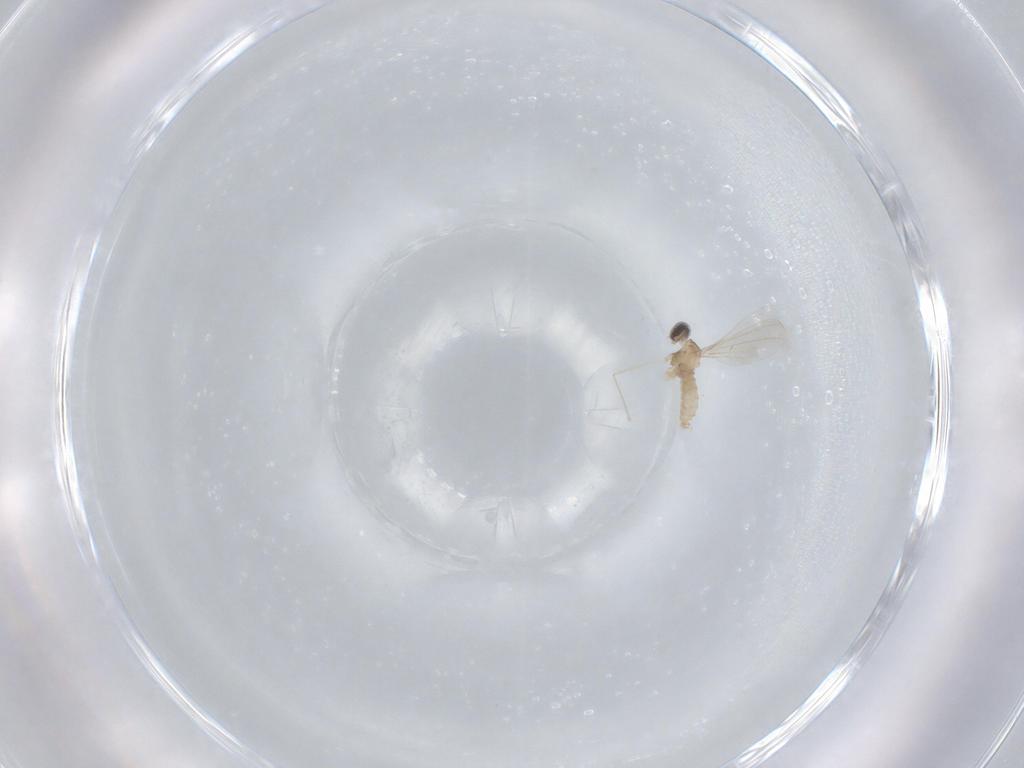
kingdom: Animalia
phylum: Arthropoda
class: Insecta
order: Diptera
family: Cecidomyiidae
